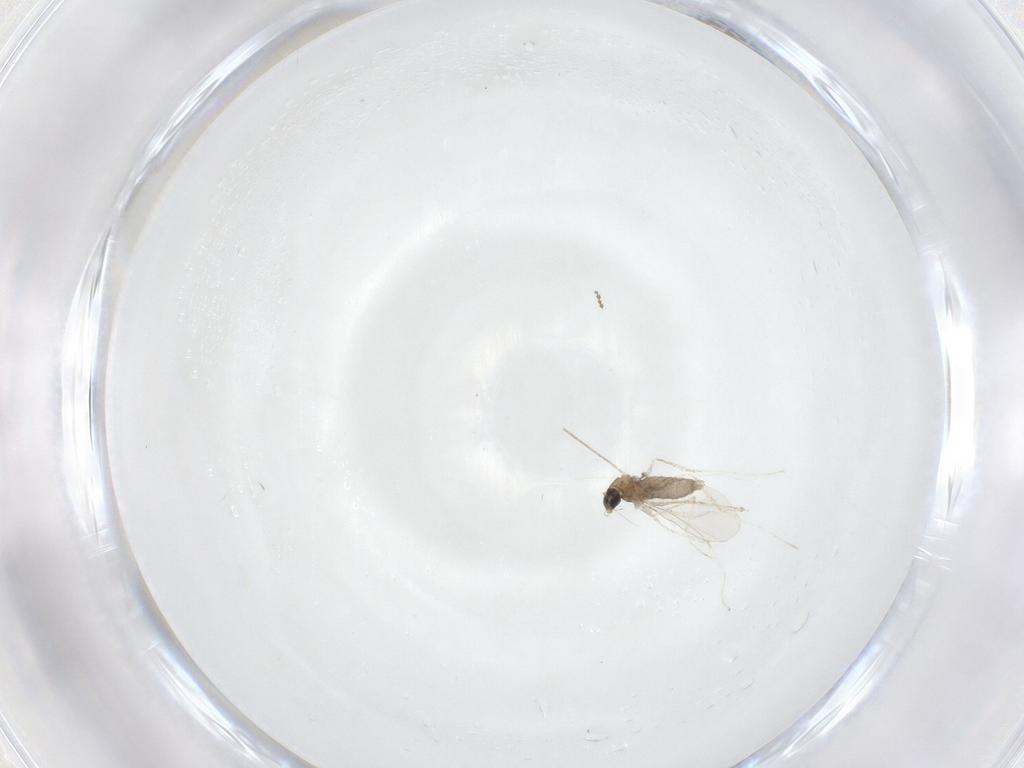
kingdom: Animalia
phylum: Arthropoda
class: Insecta
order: Diptera
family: Cecidomyiidae
